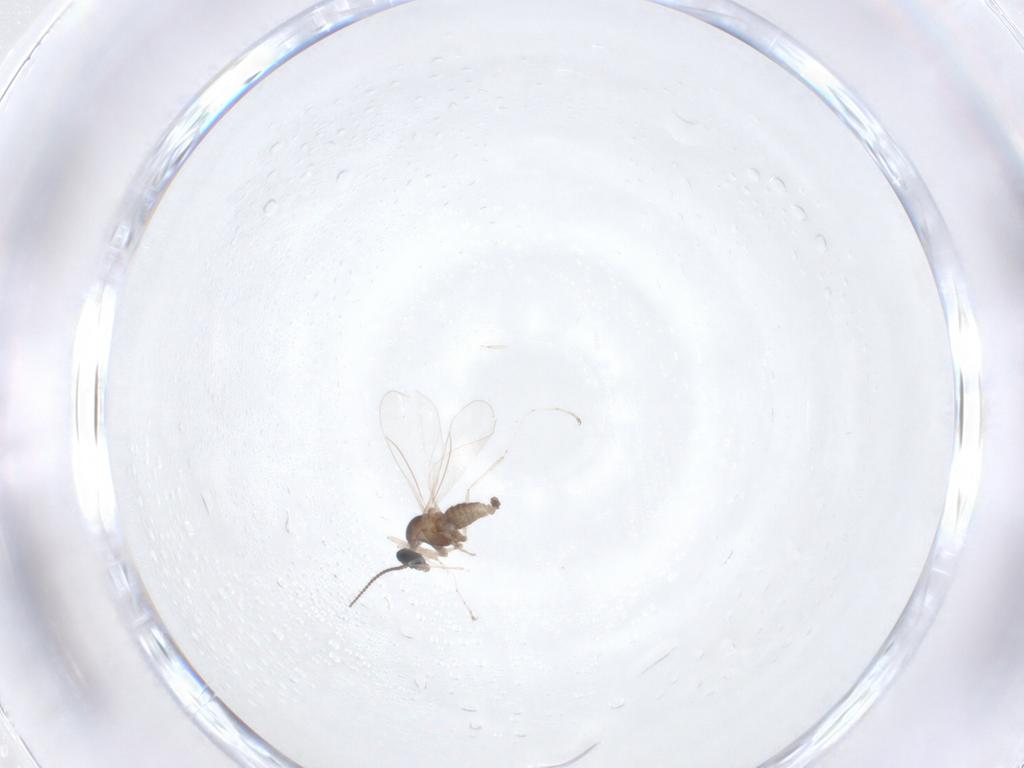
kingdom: Animalia
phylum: Arthropoda
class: Insecta
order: Diptera
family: Cecidomyiidae
